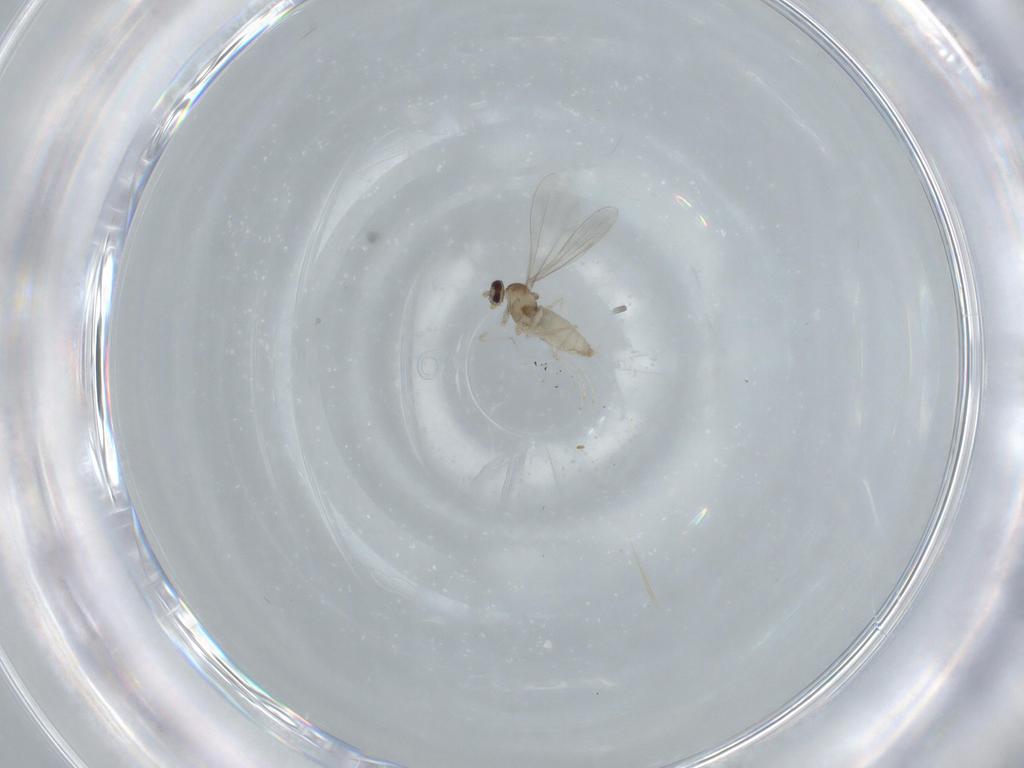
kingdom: Animalia
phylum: Arthropoda
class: Insecta
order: Diptera
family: Cecidomyiidae
